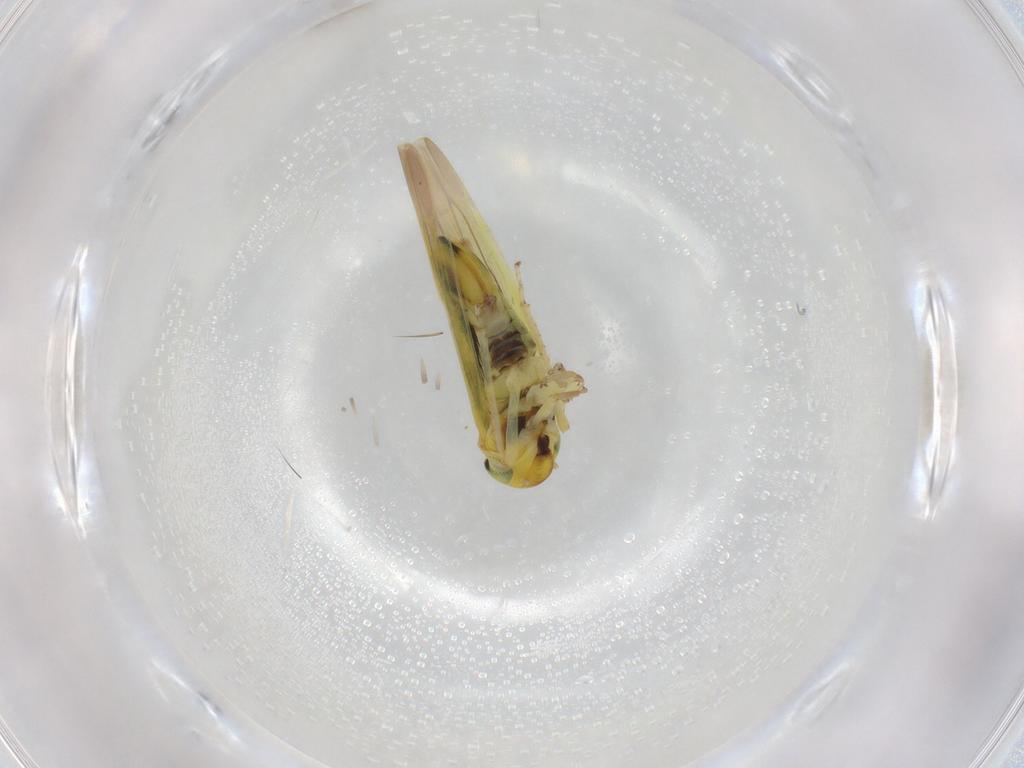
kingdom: Animalia
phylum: Arthropoda
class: Insecta
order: Hemiptera
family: Cicadellidae
